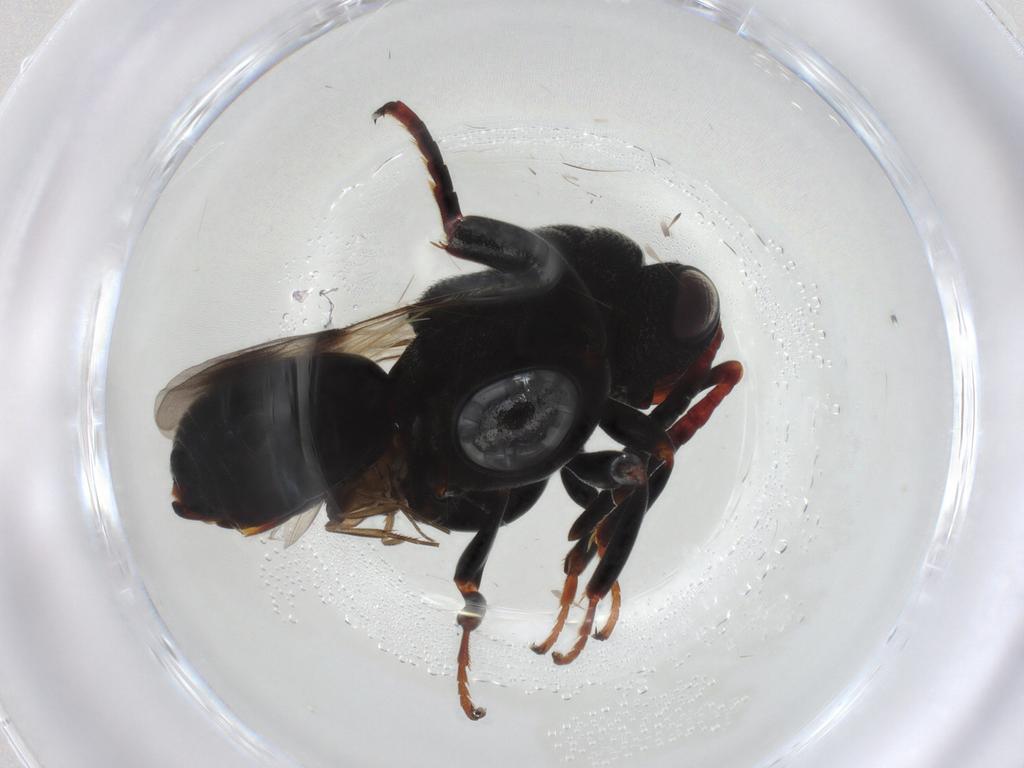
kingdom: Animalia
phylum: Arthropoda
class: Insecta
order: Diptera
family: Phoridae
